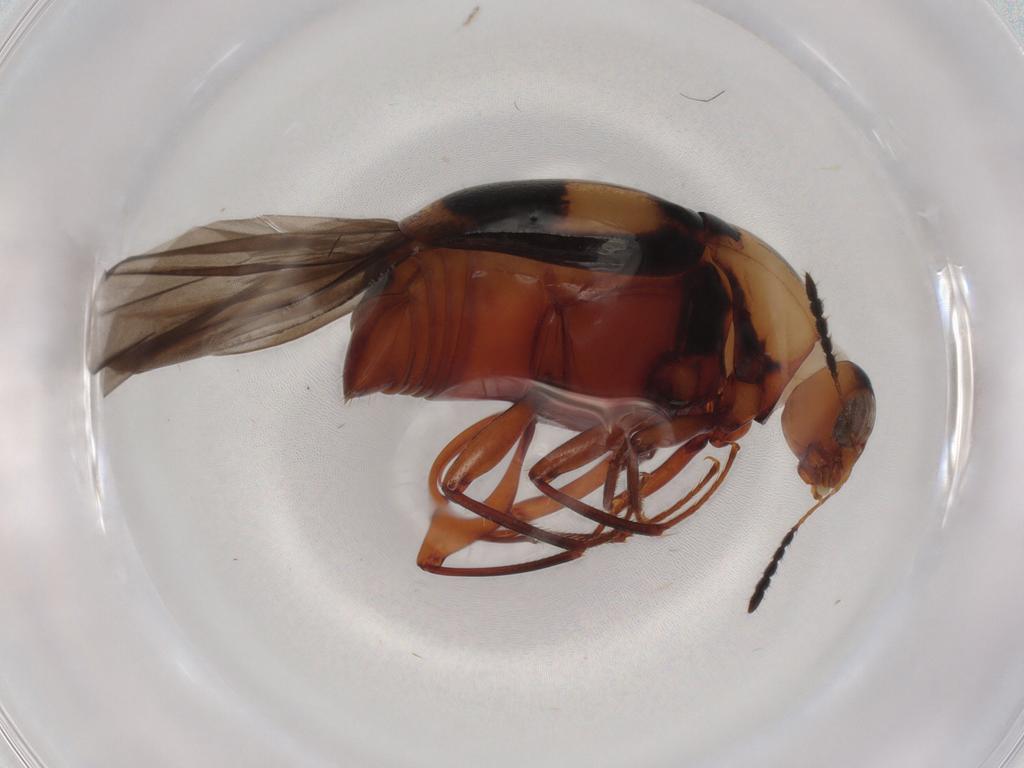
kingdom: Animalia
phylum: Arthropoda
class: Insecta
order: Coleoptera
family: Staphylinidae
